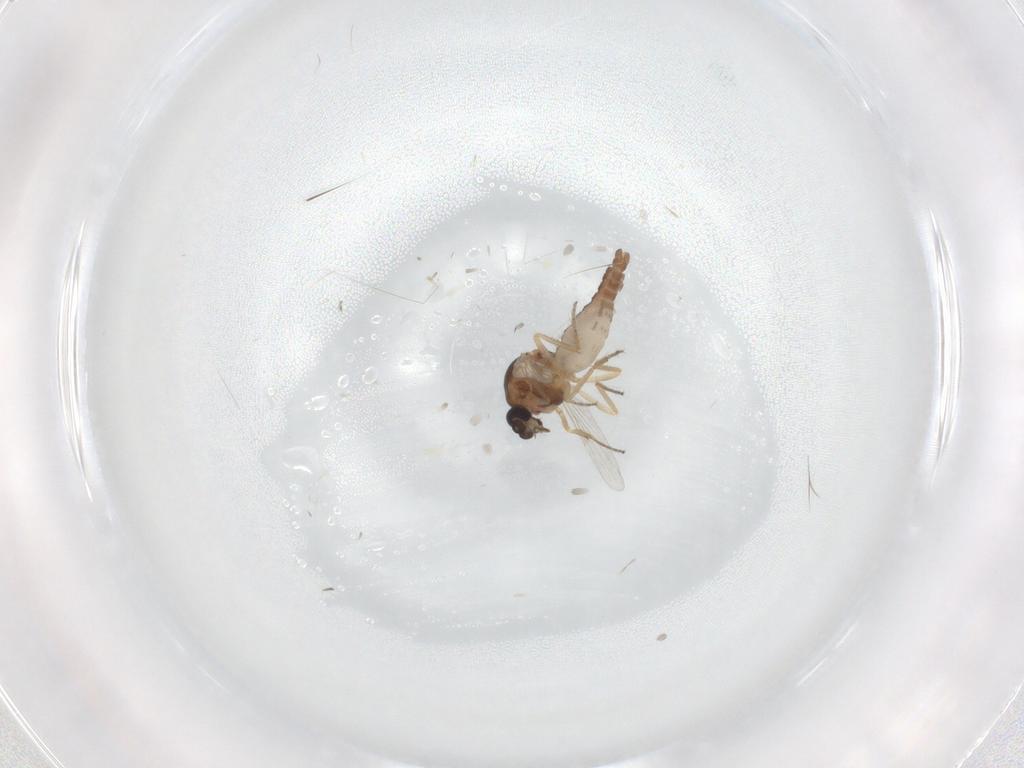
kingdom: Animalia
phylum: Arthropoda
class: Insecta
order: Diptera
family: Ceratopogonidae
